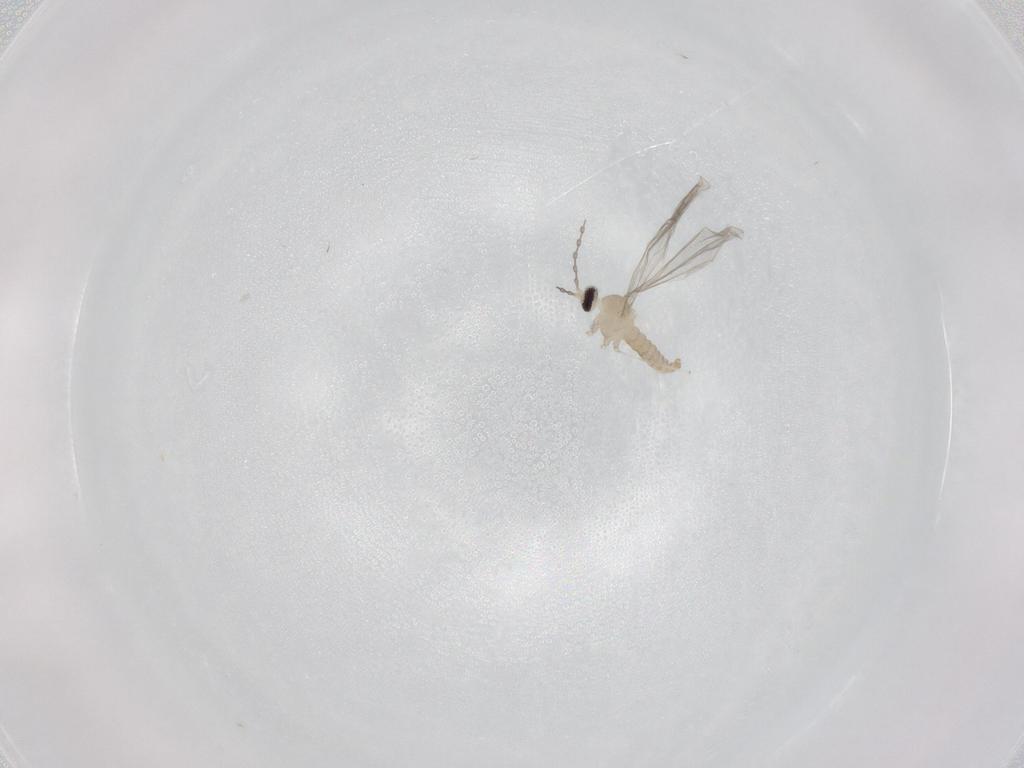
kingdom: Animalia
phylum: Arthropoda
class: Insecta
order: Diptera
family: Cecidomyiidae
